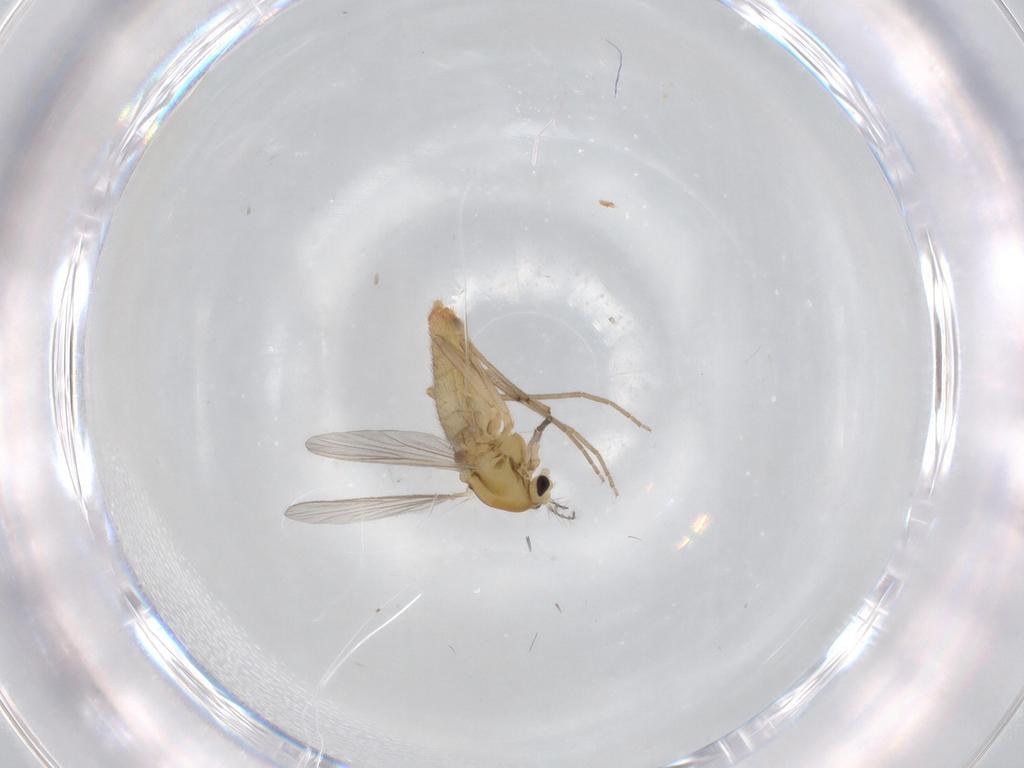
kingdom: Animalia
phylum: Arthropoda
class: Insecta
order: Diptera
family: Chironomidae
